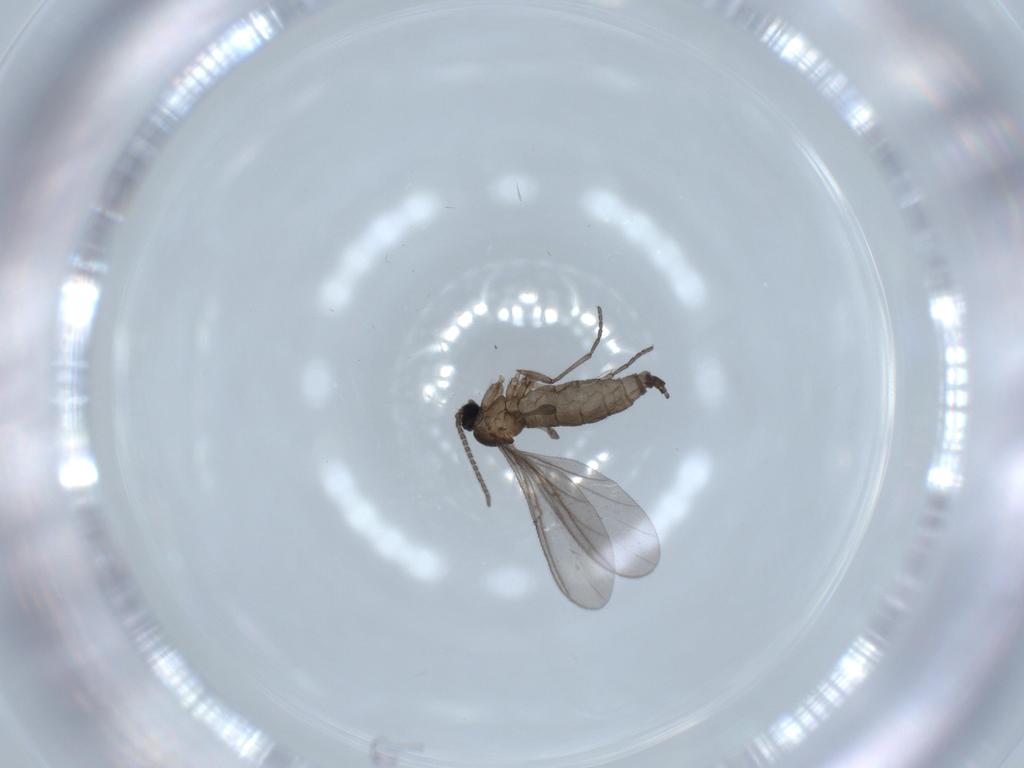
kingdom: Animalia
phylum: Arthropoda
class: Insecta
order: Diptera
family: Sciaridae
